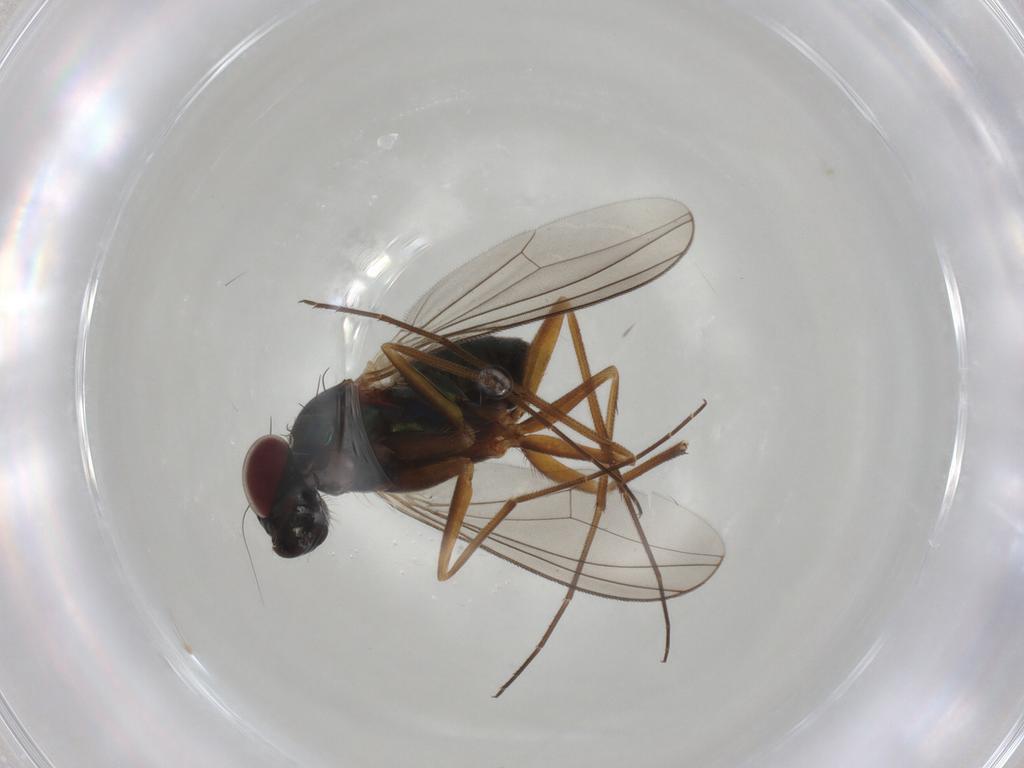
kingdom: Animalia
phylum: Arthropoda
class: Insecta
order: Diptera
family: Dolichopodidae
